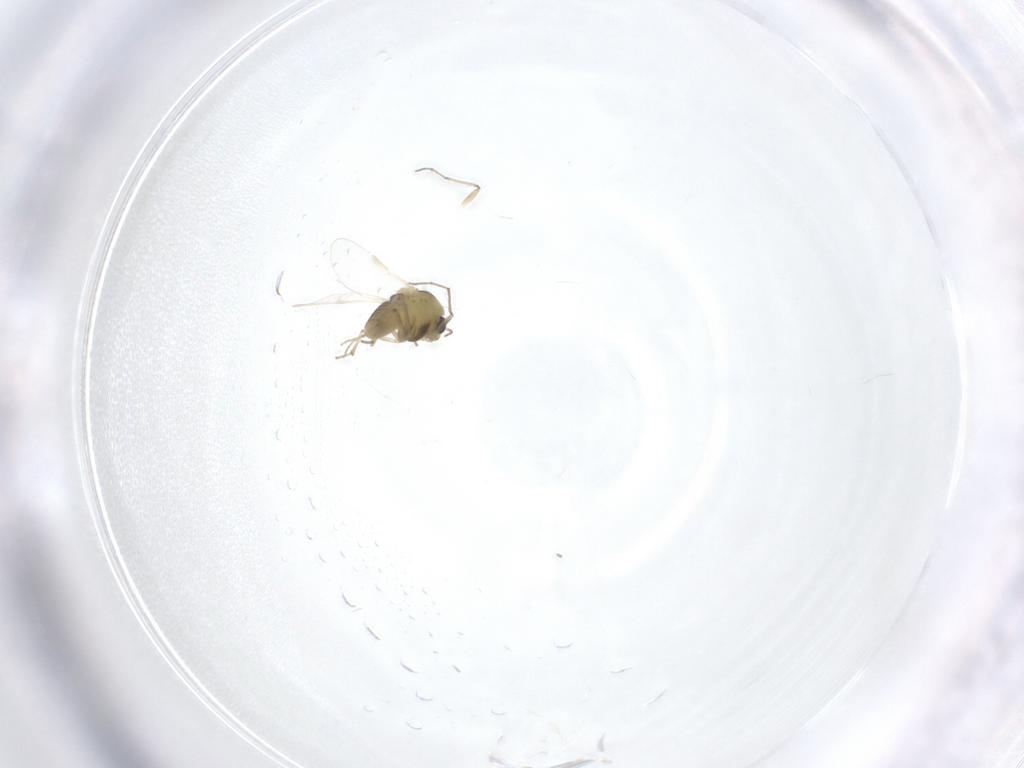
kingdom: Animalia
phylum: Arthropoda
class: Insecta
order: Diptera
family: Chironomidae
